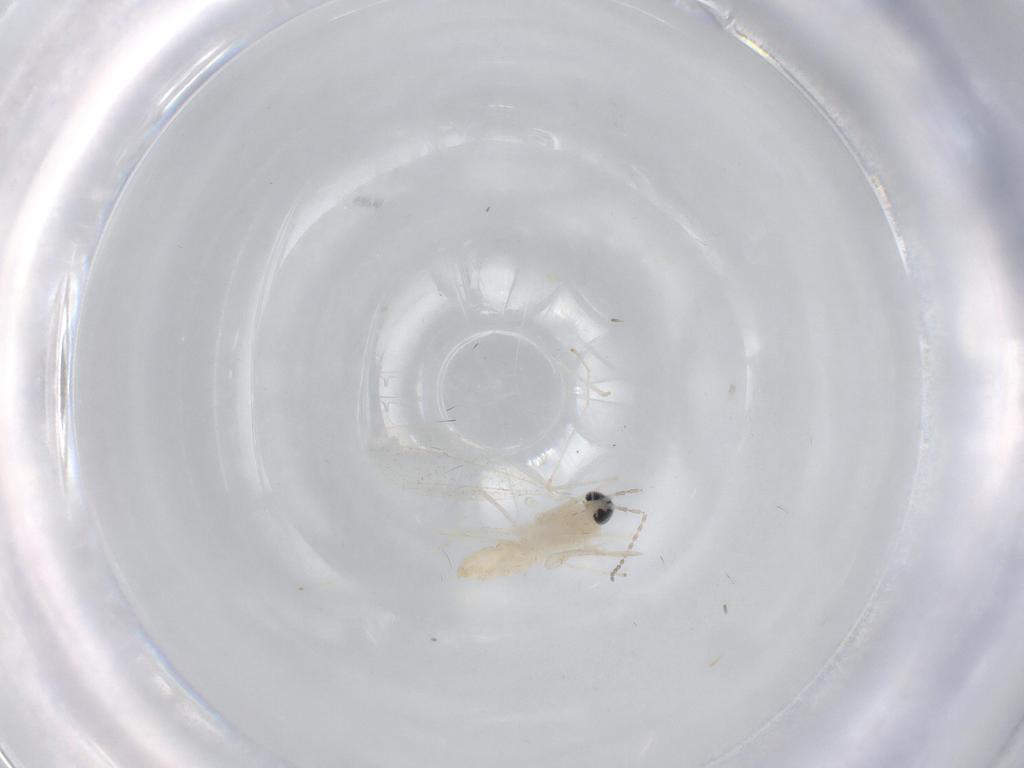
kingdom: Animalia
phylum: Arthropoda
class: Insecta
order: Diptera
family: Cecidomyiidae
